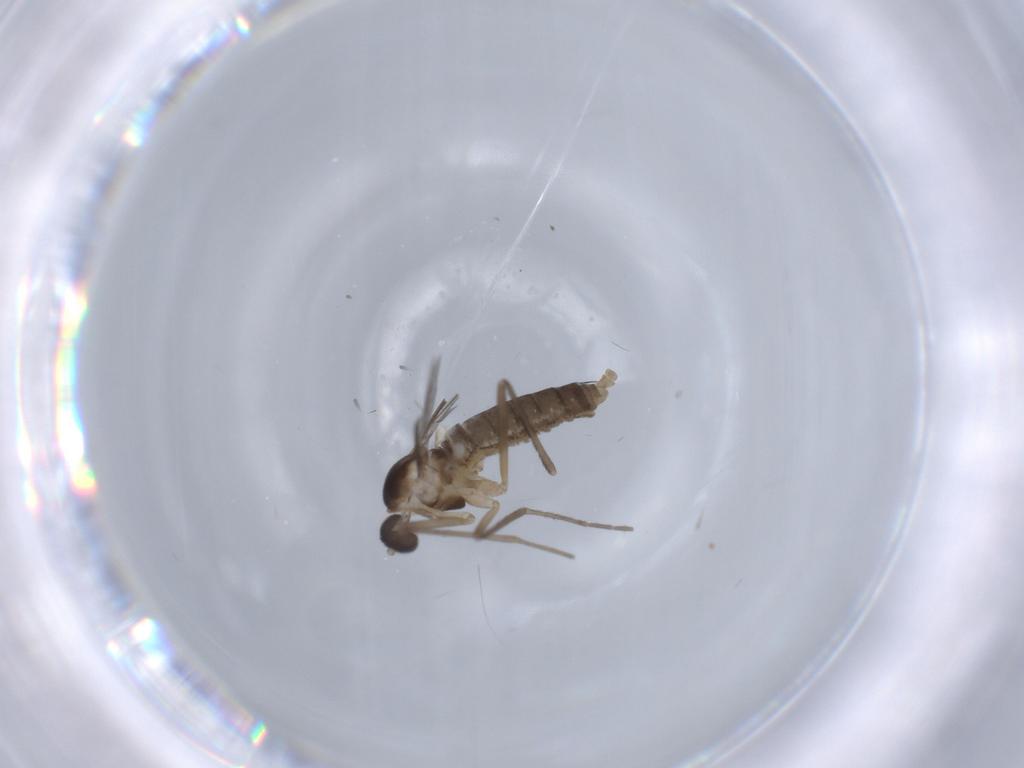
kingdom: Animalia
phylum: Arthropoda
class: Insecta
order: Diptera
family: Cecidomyiidae
